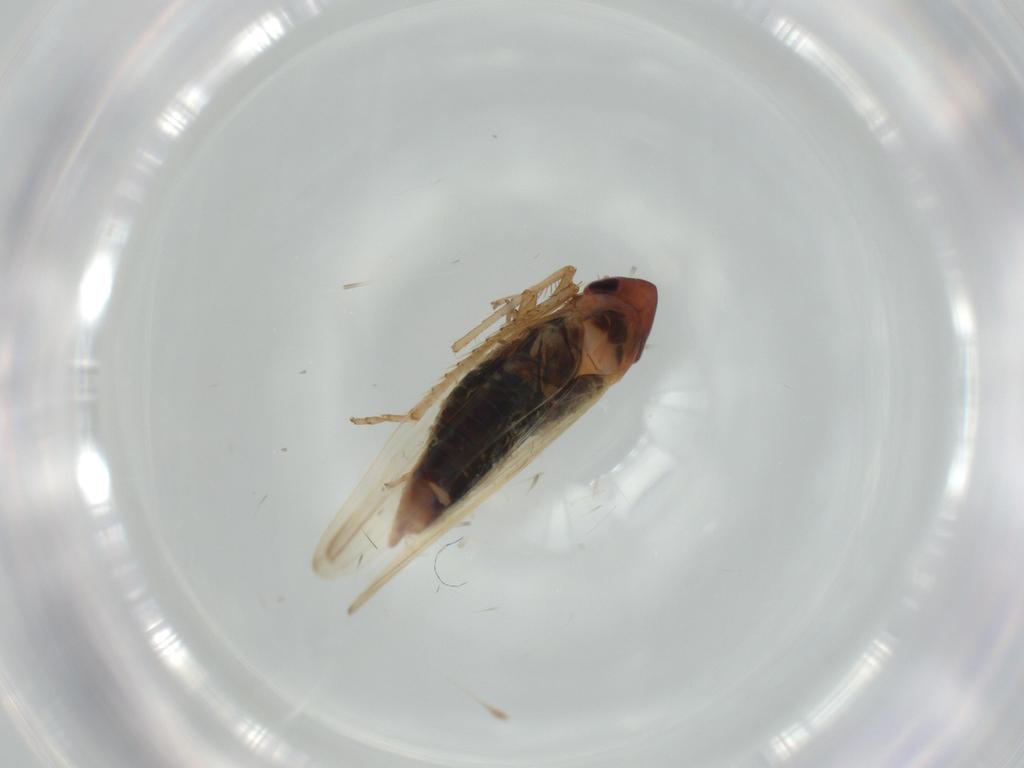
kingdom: Animalia
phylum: Arthropoda
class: Insecta
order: Hemiptera
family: Cicadellidae
